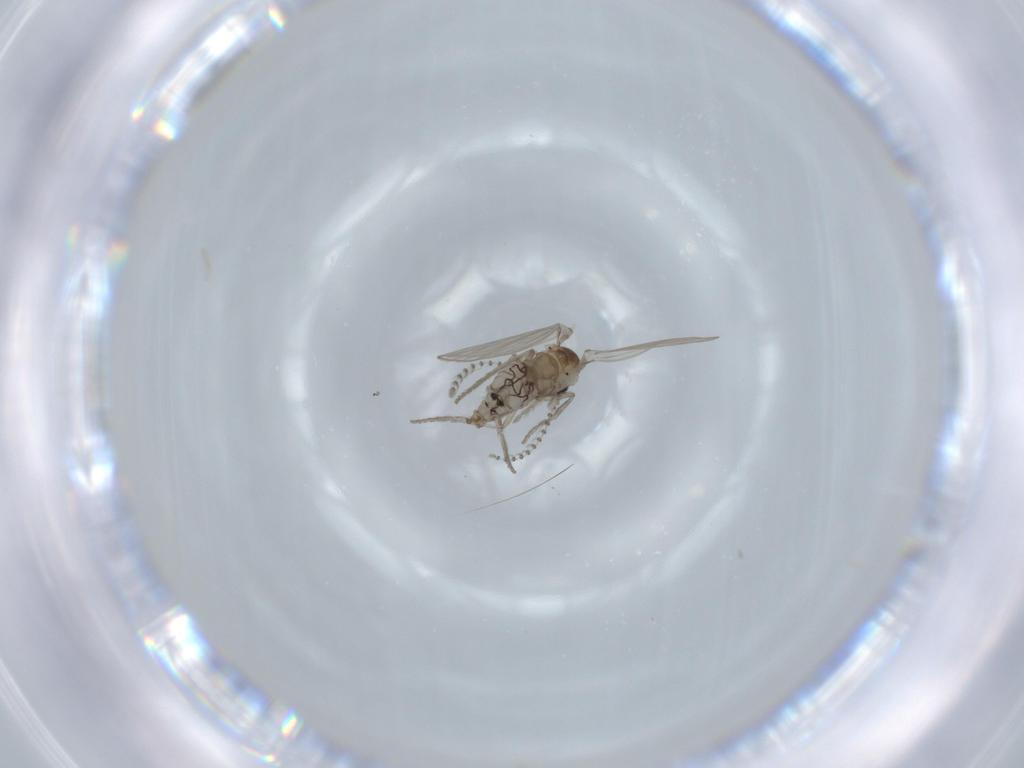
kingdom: Animalia
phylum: Arthropoda
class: Insecta
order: Diptera
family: Psychodidae
